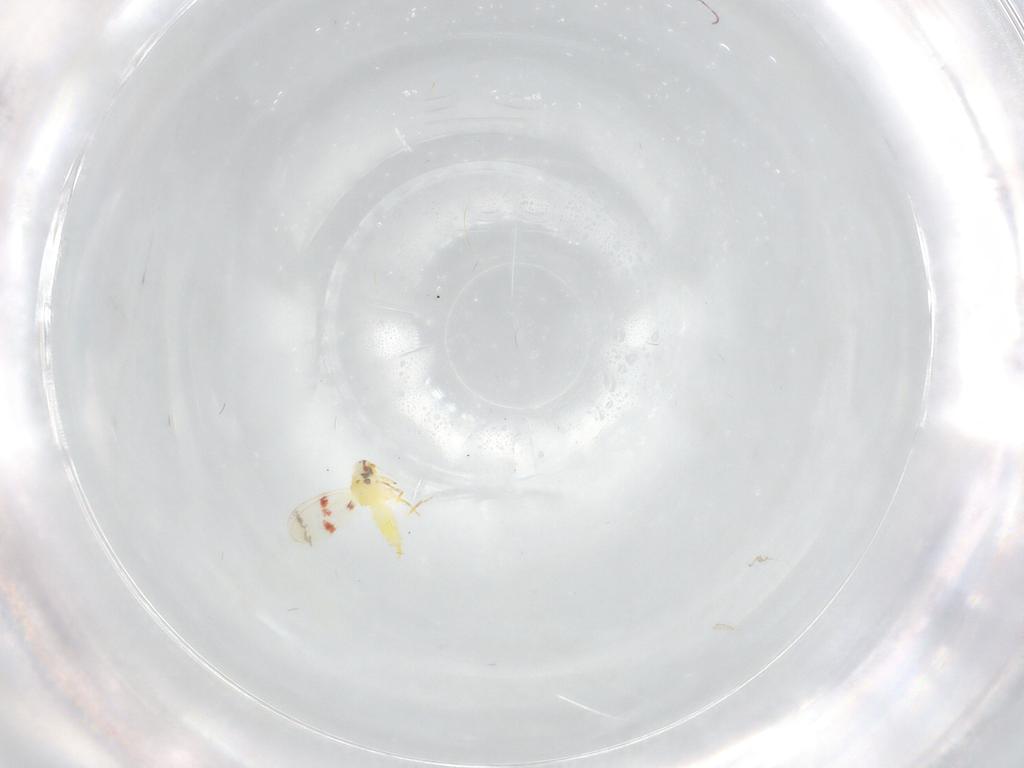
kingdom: Animalia
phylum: Arthropoda
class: Insecta
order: Hemiptera
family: Aleyrodidae
